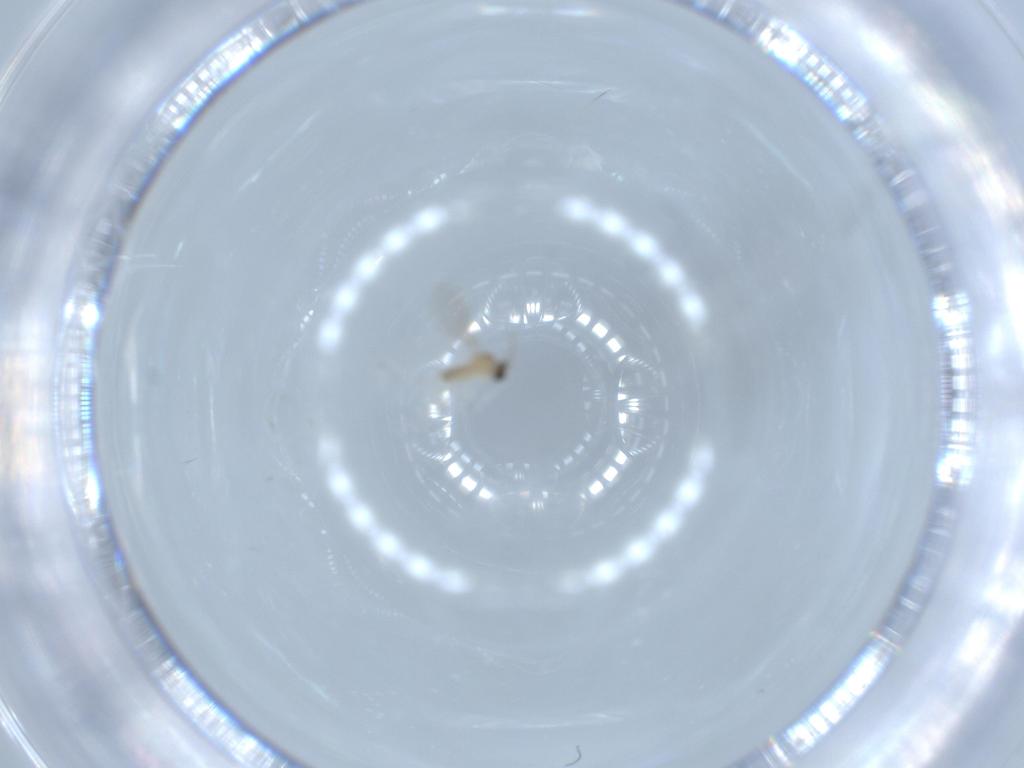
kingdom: Animalia
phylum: Arthropoda
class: Insecta
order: Diptera
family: Cecidomyiidae
